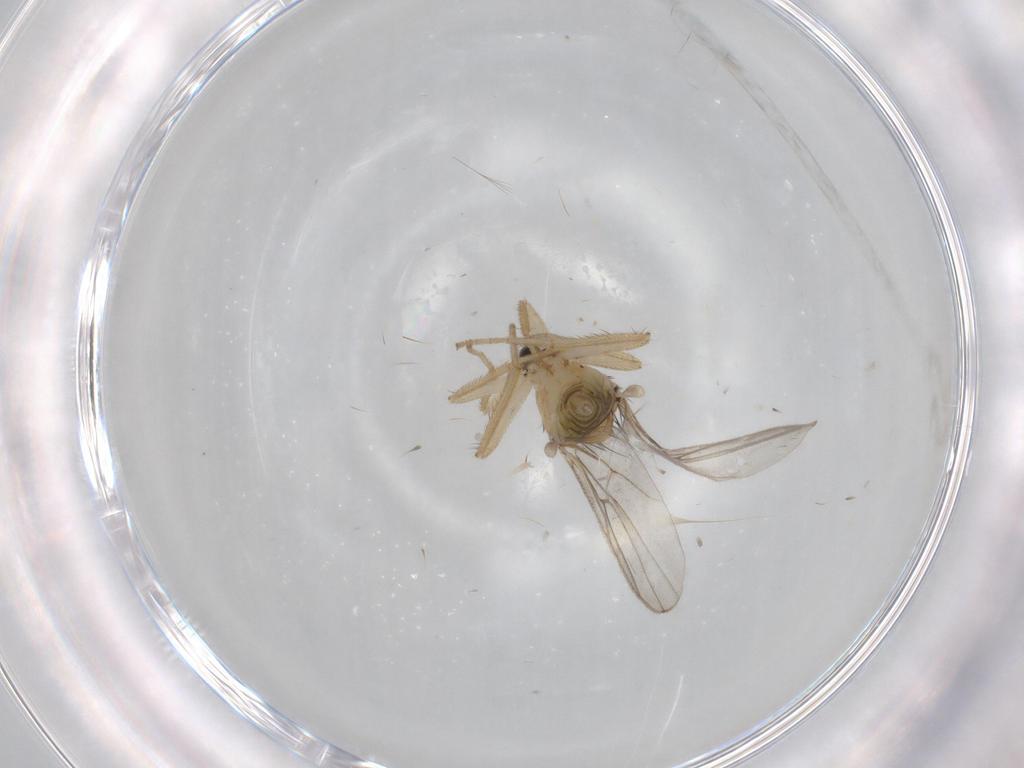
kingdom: Animalia
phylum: Arthropoda
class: Insecta
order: Diptera
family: Hybotidae
